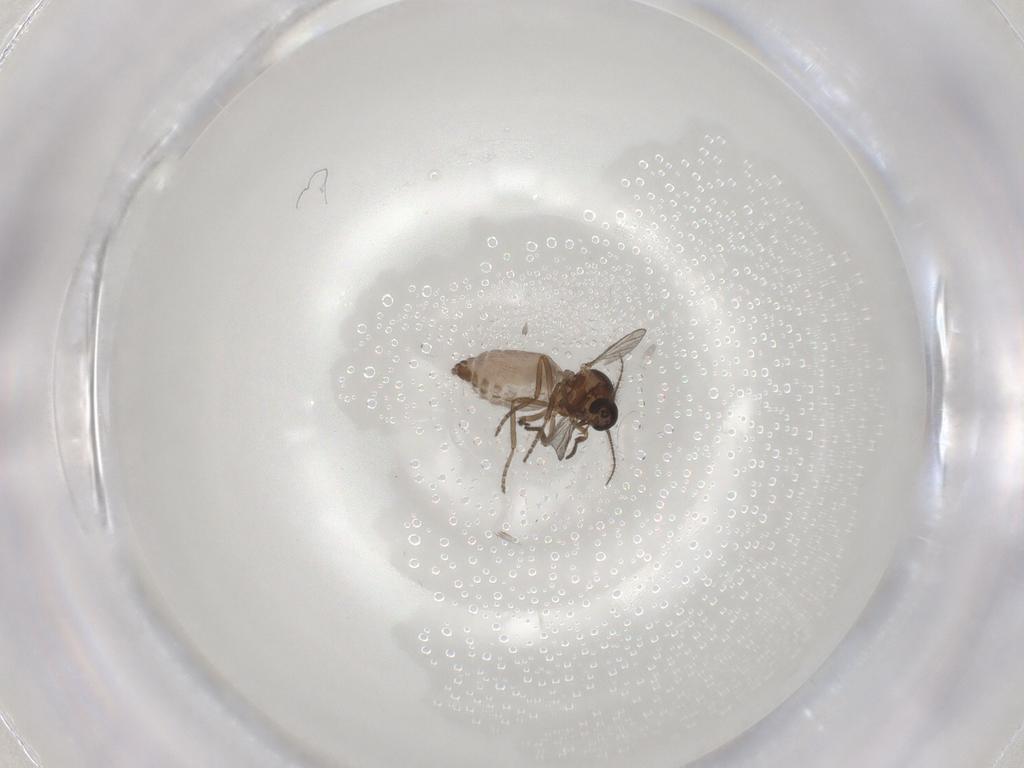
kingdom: Animalia
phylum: Arthropoda
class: Insecta
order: Diptera
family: Ceratopogonidae
